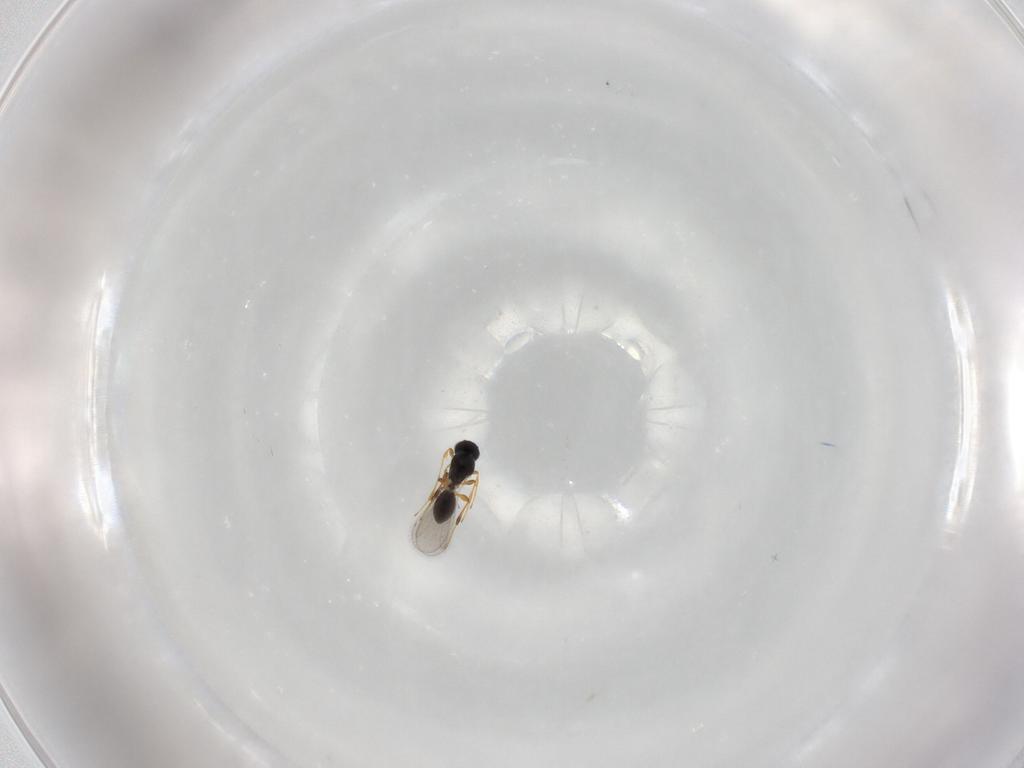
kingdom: Animalia
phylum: Arthropoda
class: Insecta
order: Hymenoptera
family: Platygastridae
